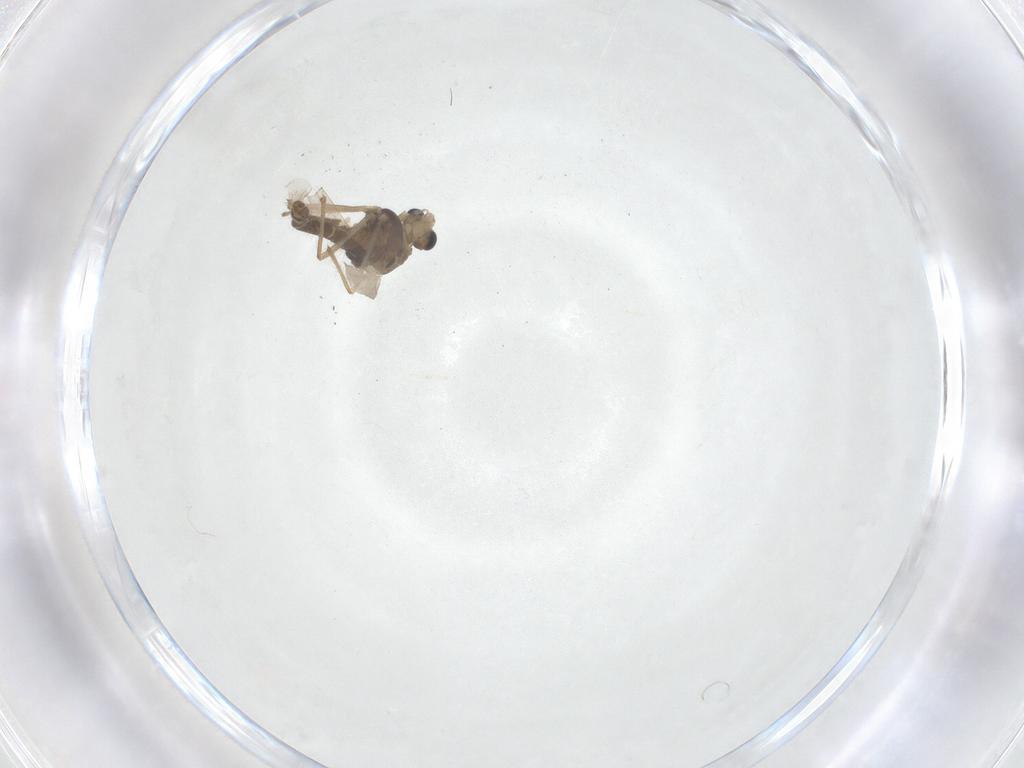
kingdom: Animalia
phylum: Arthropoda
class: Insecta
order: Diptera
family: Chironomidae
